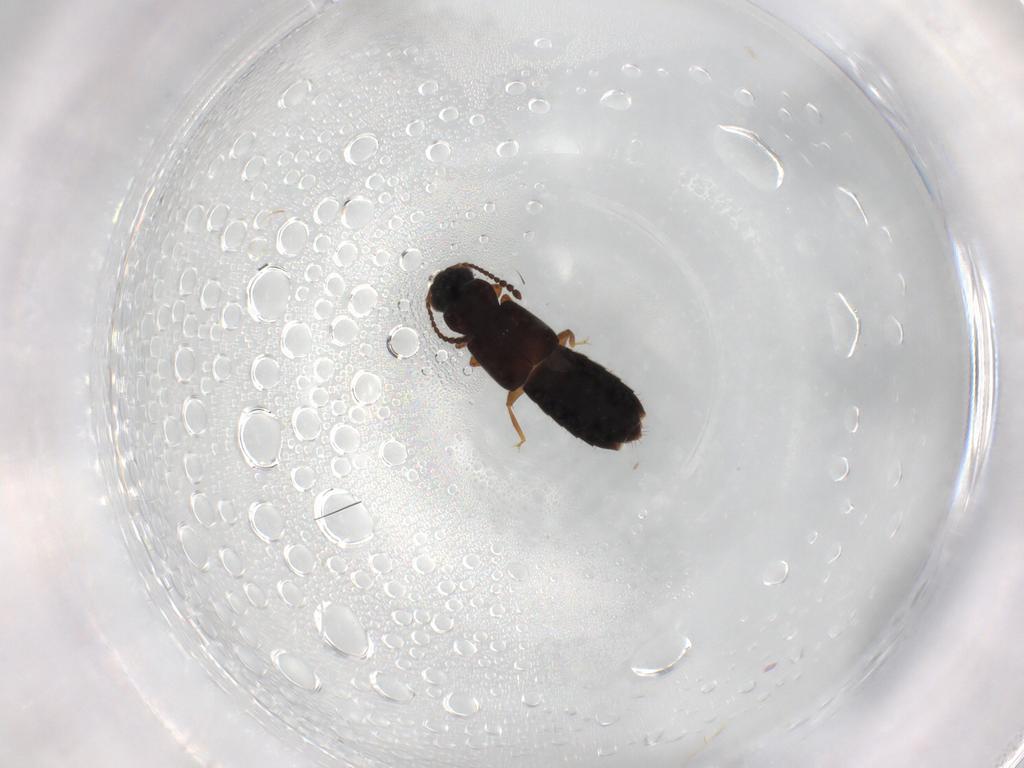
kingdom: Animalia
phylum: Arthropoda
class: Insecta
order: Coleoptera
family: Staphylinidae
